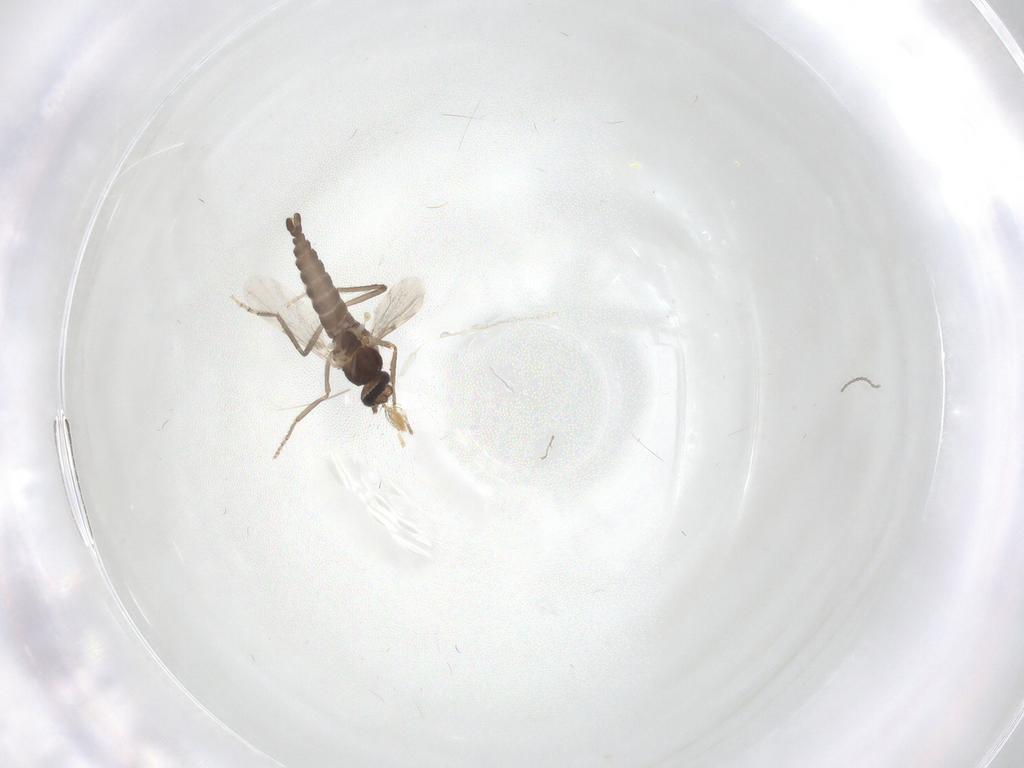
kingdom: Animalia
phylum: Arthropoda
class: Insecta
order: Diptera
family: Ceratopogonidae
